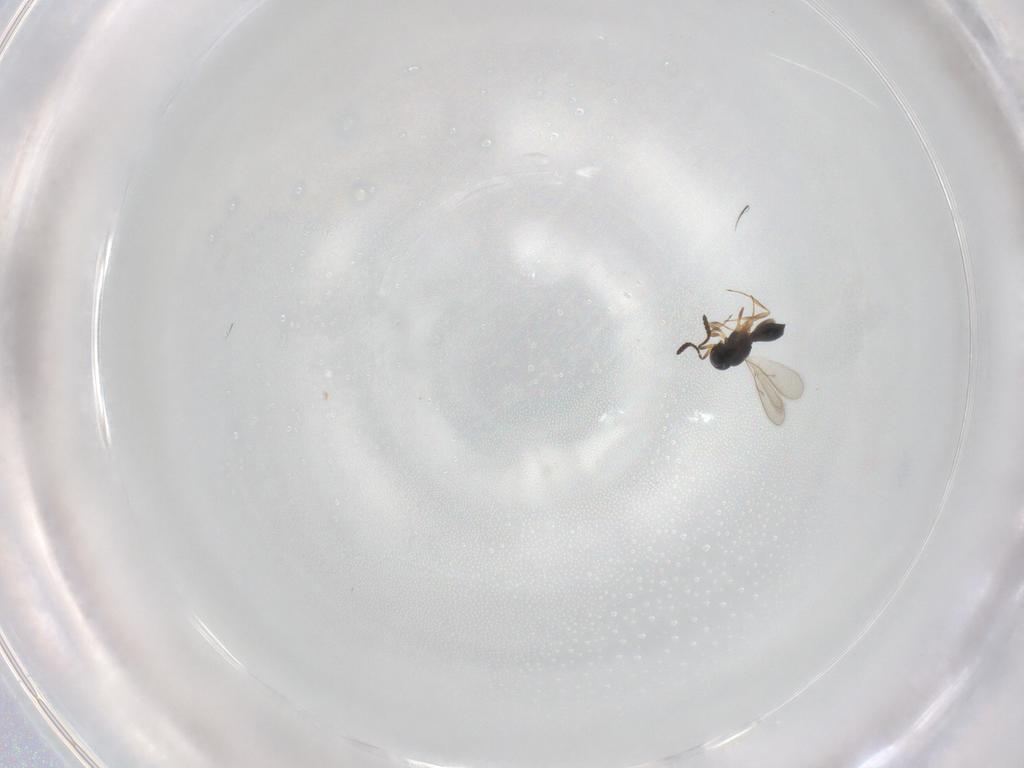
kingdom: Animalia
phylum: Arthropoda
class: Insecta
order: Hymenoptera
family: Scelionidae
